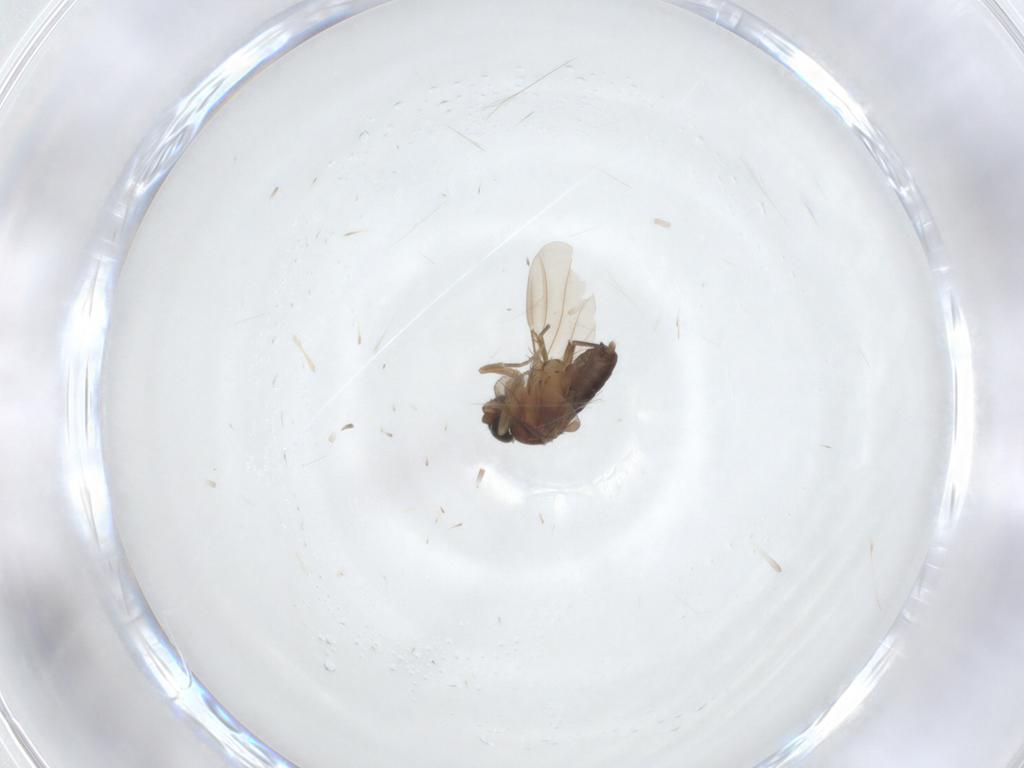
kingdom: Animalia
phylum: Arthropoda
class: Insecta
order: Diptera
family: Phoridae
